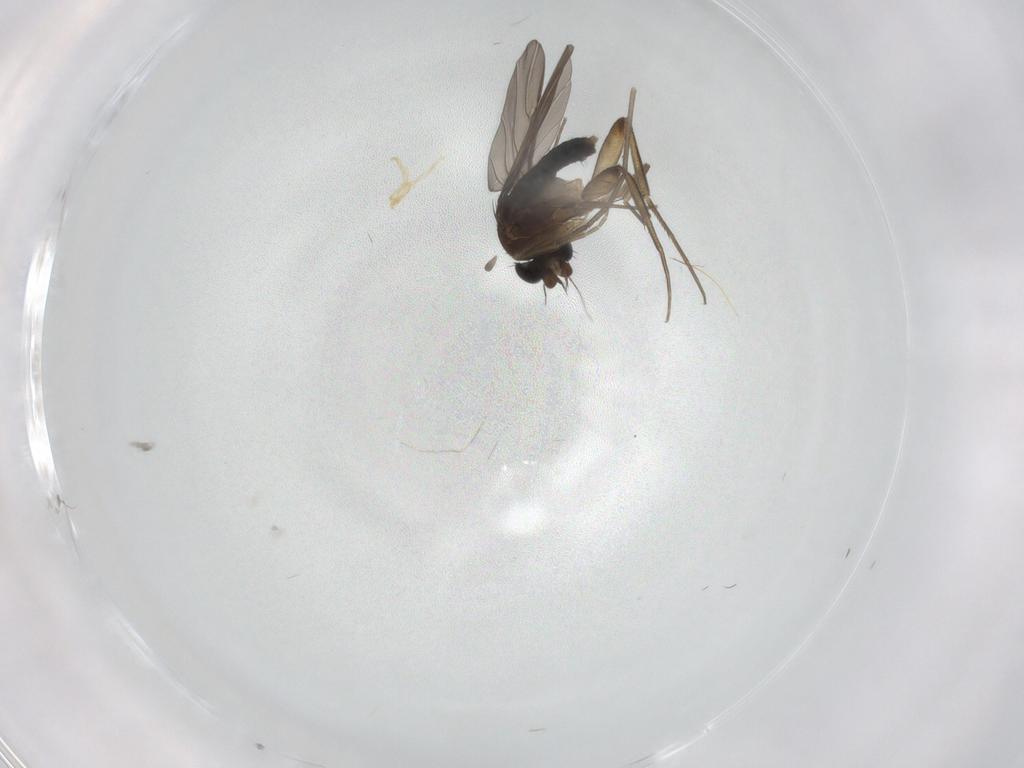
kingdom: Animalia
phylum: Arthropoda
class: Insecta
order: Diptera
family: Phoridae
